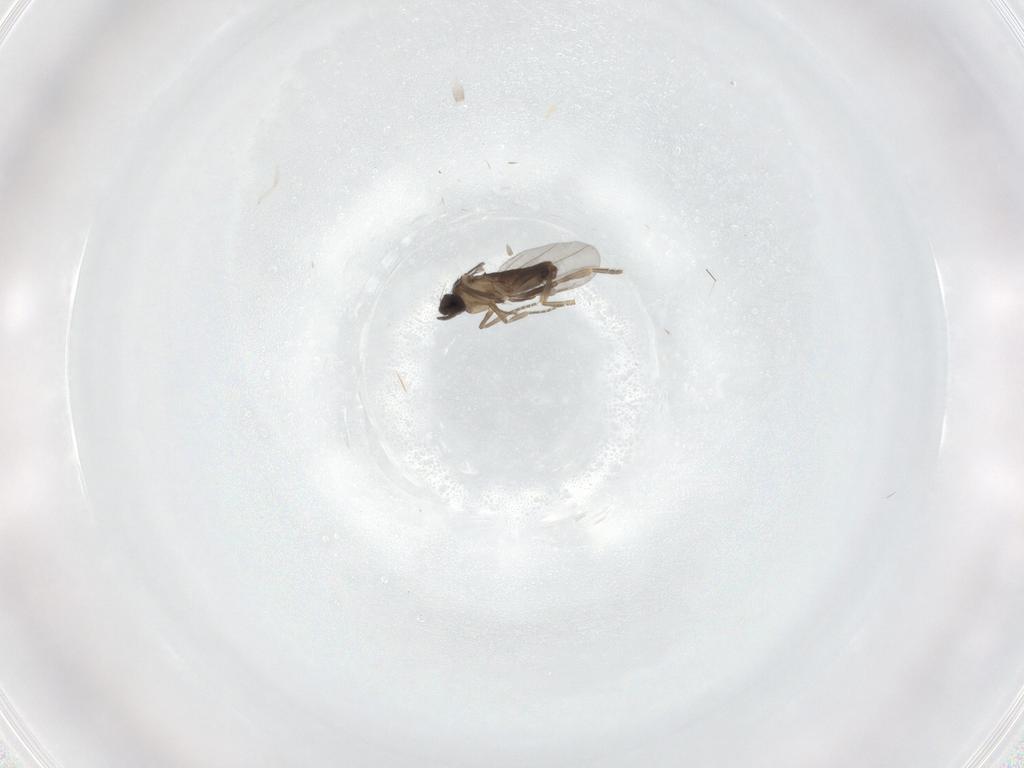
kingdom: Animalia
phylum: Arthropoda
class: Insecta
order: Diptera
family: Cecidomyiidae
